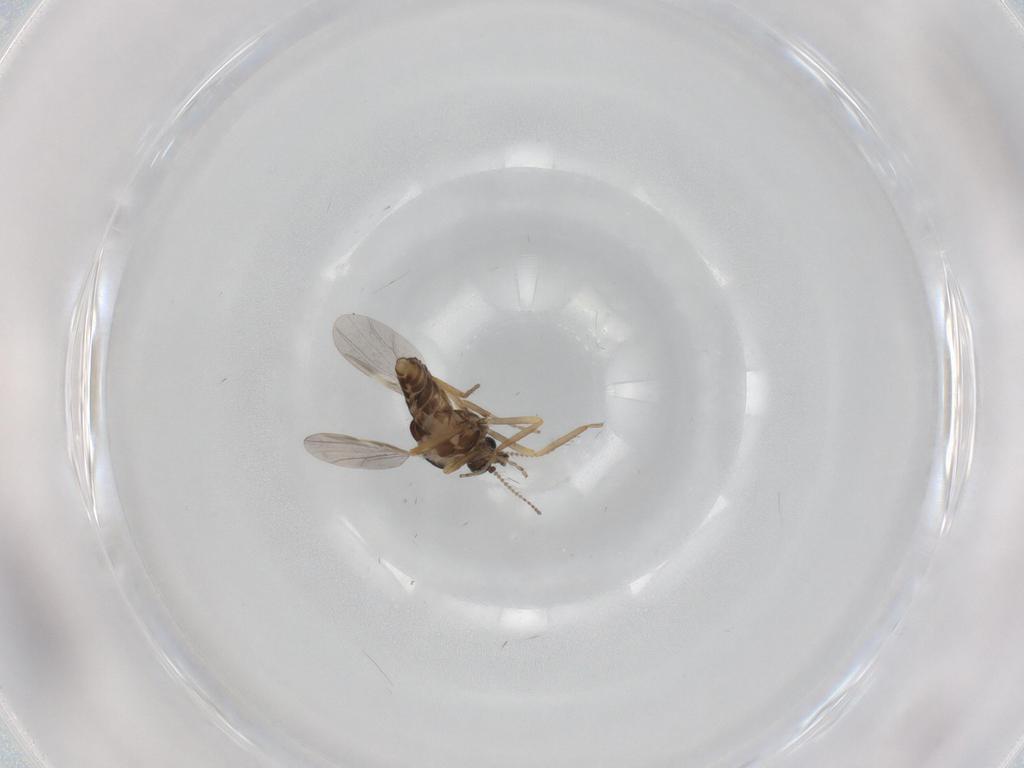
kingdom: Animalia
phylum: Arthropoda
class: Insecta
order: Diptera
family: Ceratopogonidae
